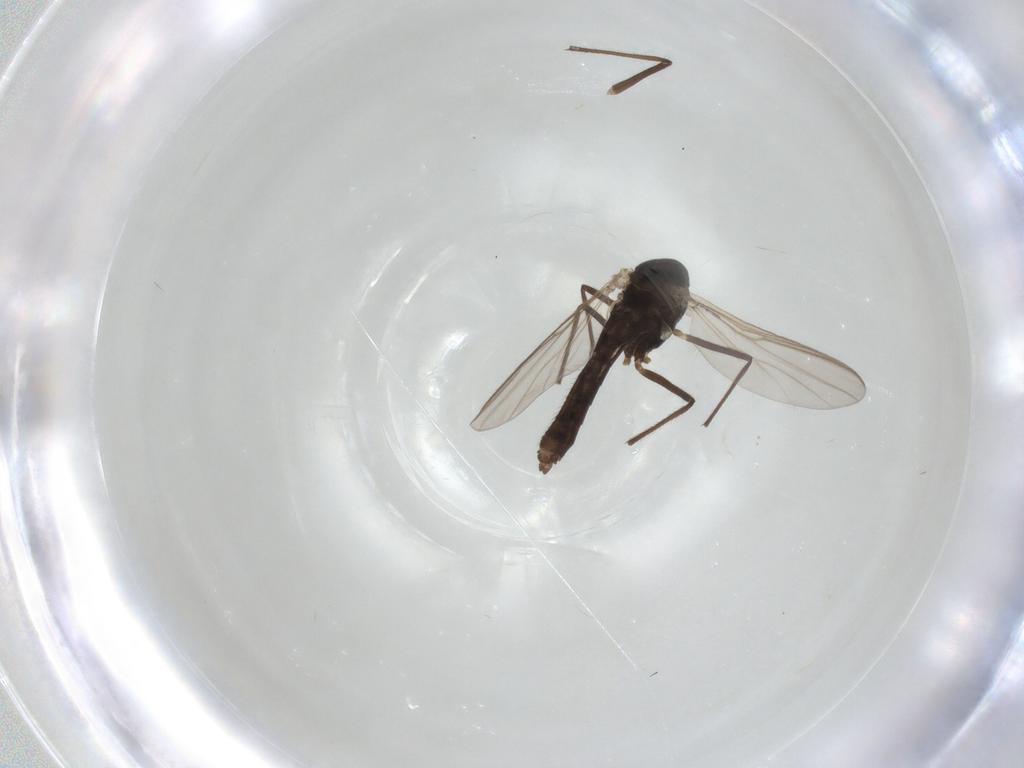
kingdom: Animalia
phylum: Arthropoda
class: Insecta
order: Diptera
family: Chironomidae
